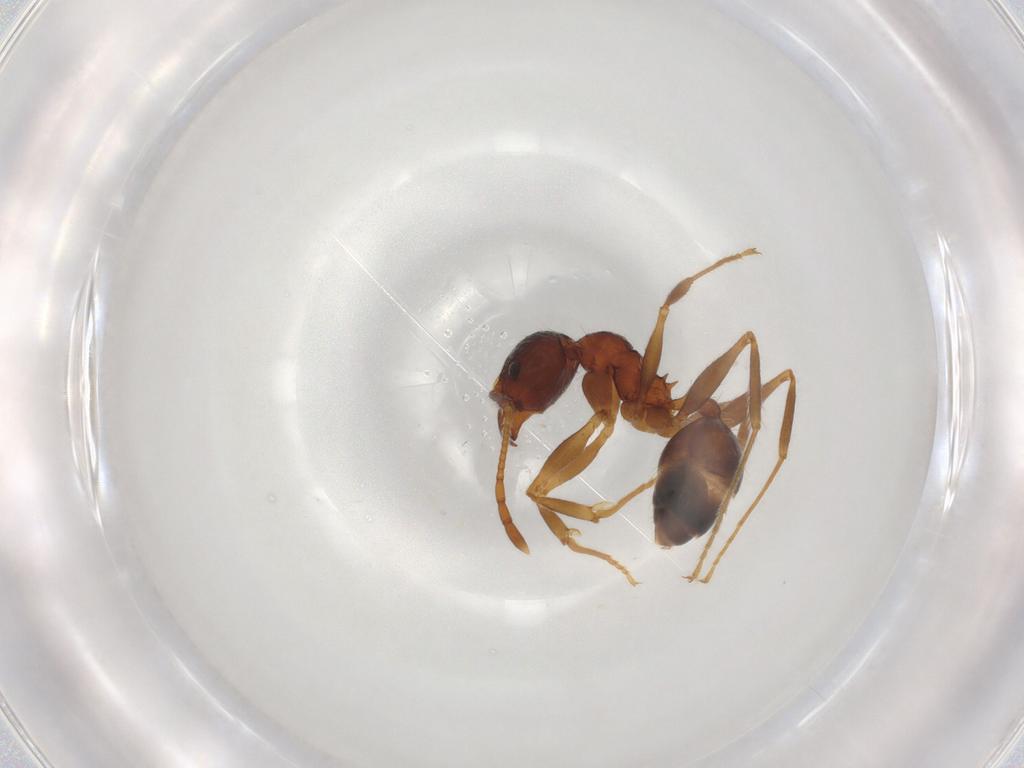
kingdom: Animalia
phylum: Arthropoda
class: Insecta
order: Hymenoptera
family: Formicidae
